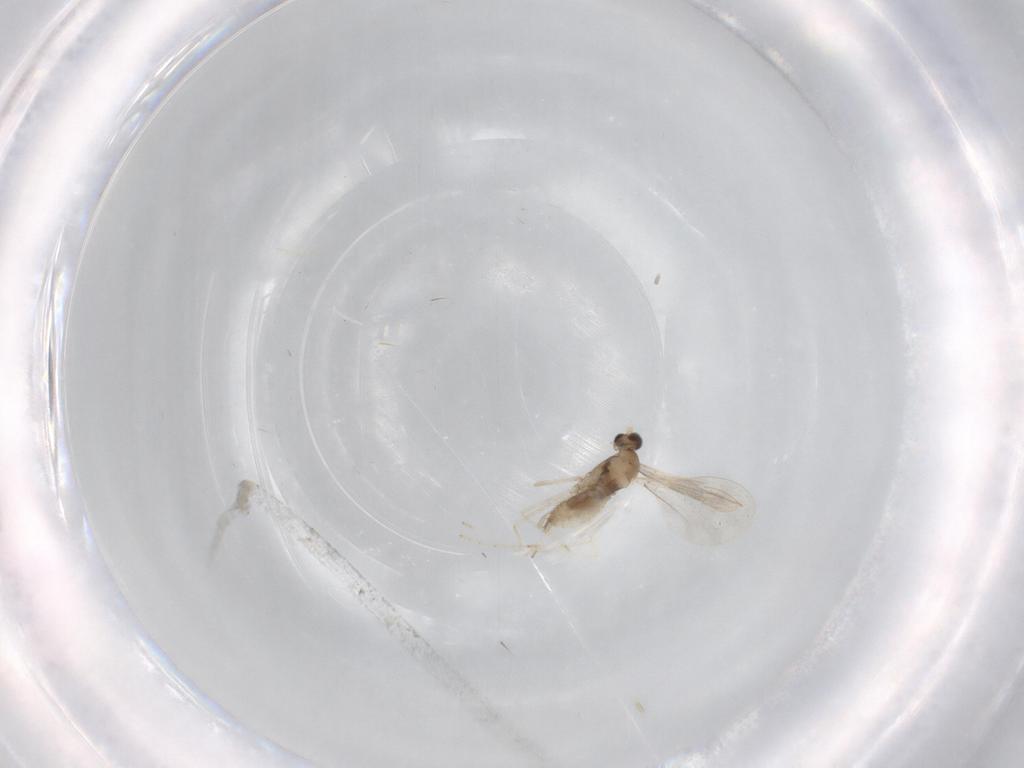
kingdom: Animalia
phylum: Arthropoda
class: Insecta
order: Diptera
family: Cecidomyiidae
